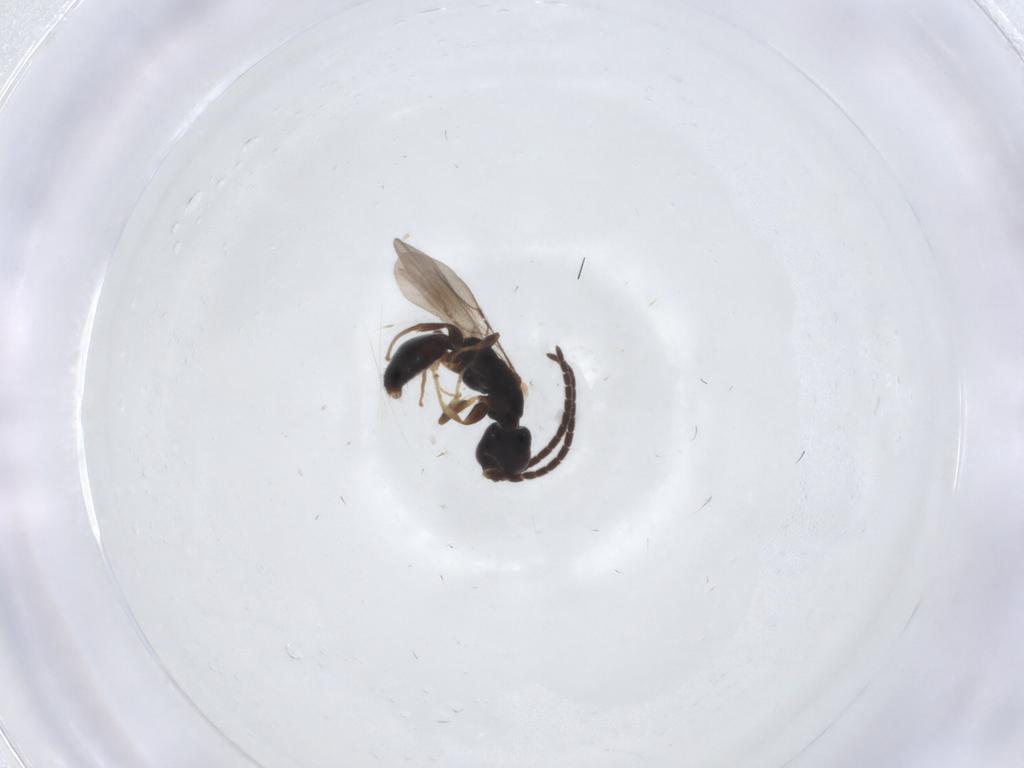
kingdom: Animalia
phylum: Arthropoda
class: Insecta
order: Hymenoptera
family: Bethylidae
